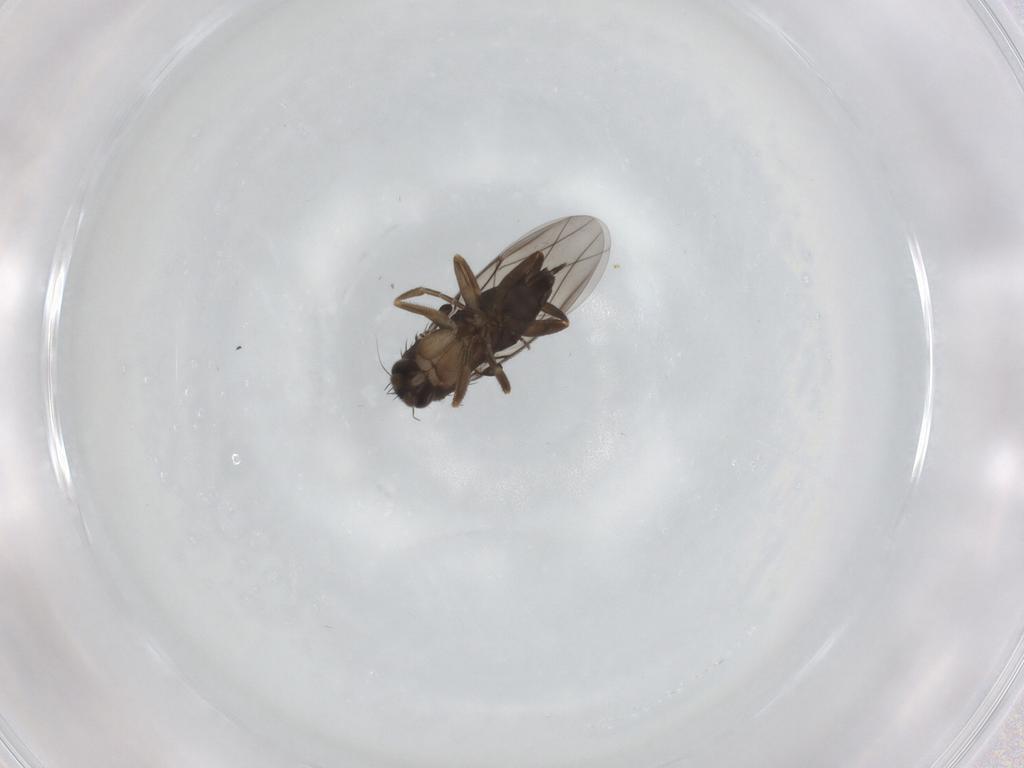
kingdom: Animalia
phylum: Arthropoda
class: Insecta
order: Diptera
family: Phoridae
